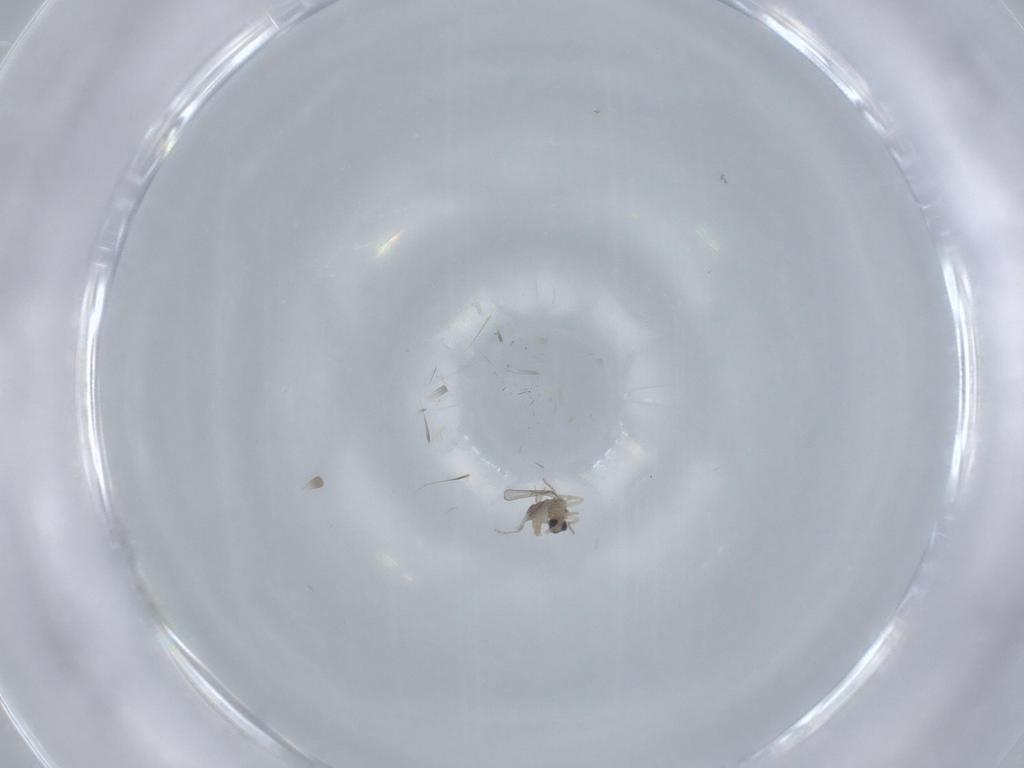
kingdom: Animalia
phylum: Arthropoda
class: Insecta
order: Diptera
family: Cecidomyiidae
